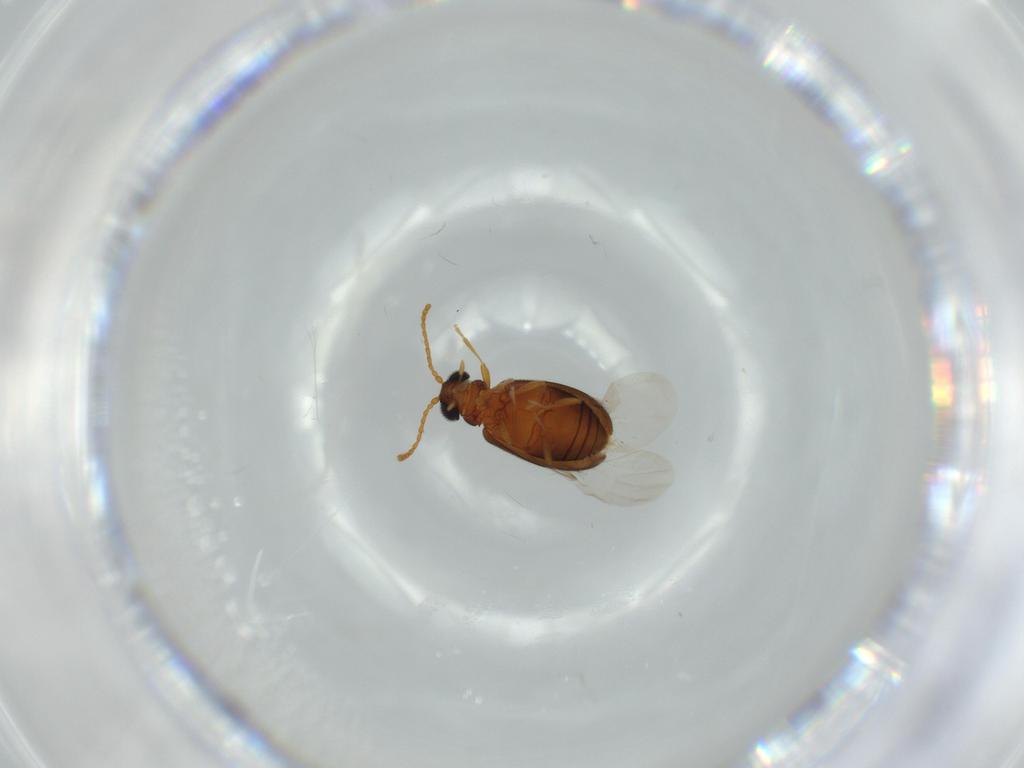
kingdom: Animalia
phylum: Arthropoda
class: Insecta
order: Coleoptera
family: Aderidae
